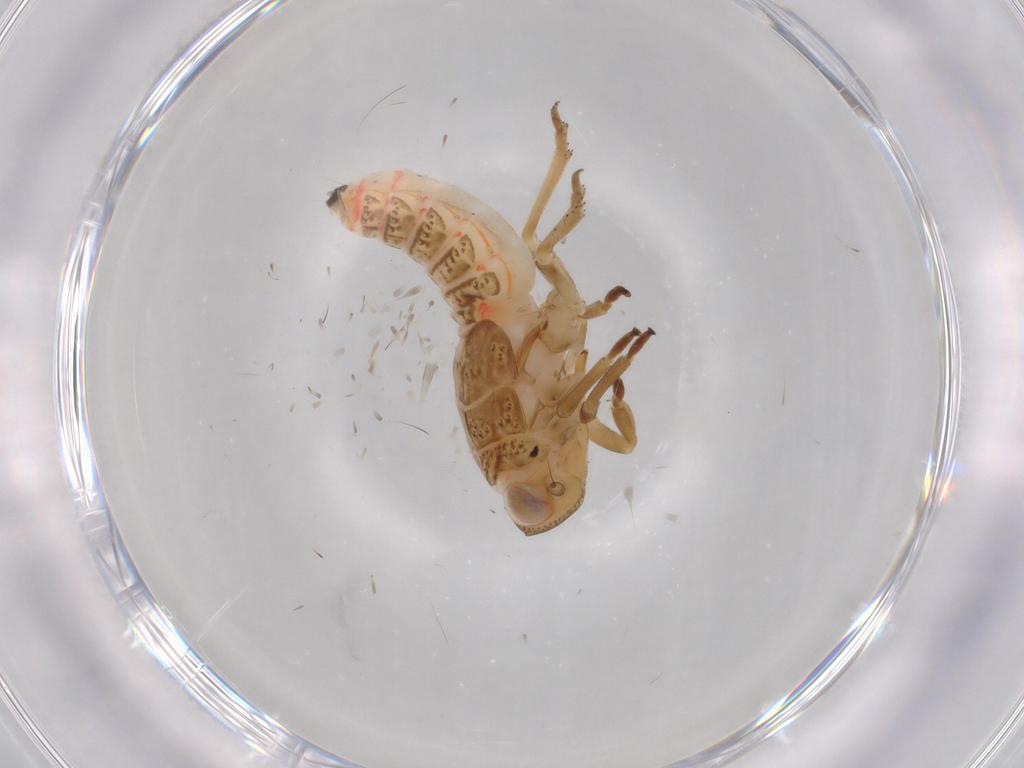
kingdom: Animalia
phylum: Arthropoda
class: Insecta
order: Hemiptera
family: Issidae
